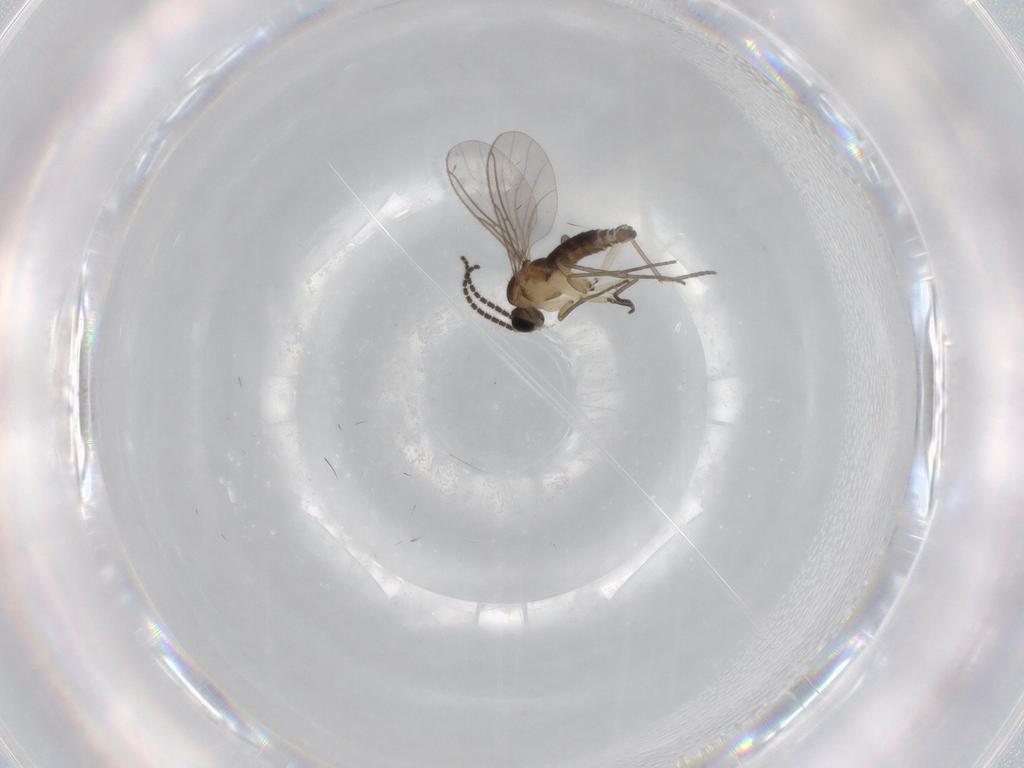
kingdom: Animalia
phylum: Arthropoda
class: Insecta
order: Diptera
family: Sciaridae
